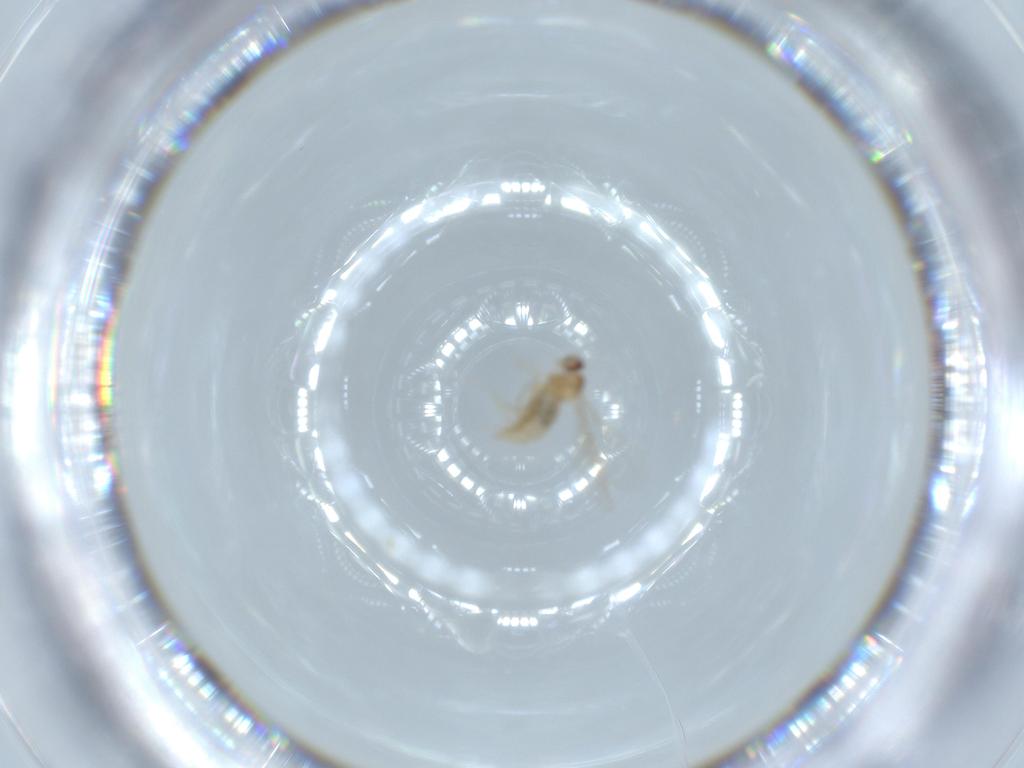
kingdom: Animalia
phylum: Arthropoda
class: Insecta
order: Diptera
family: Cecidomyiidae
